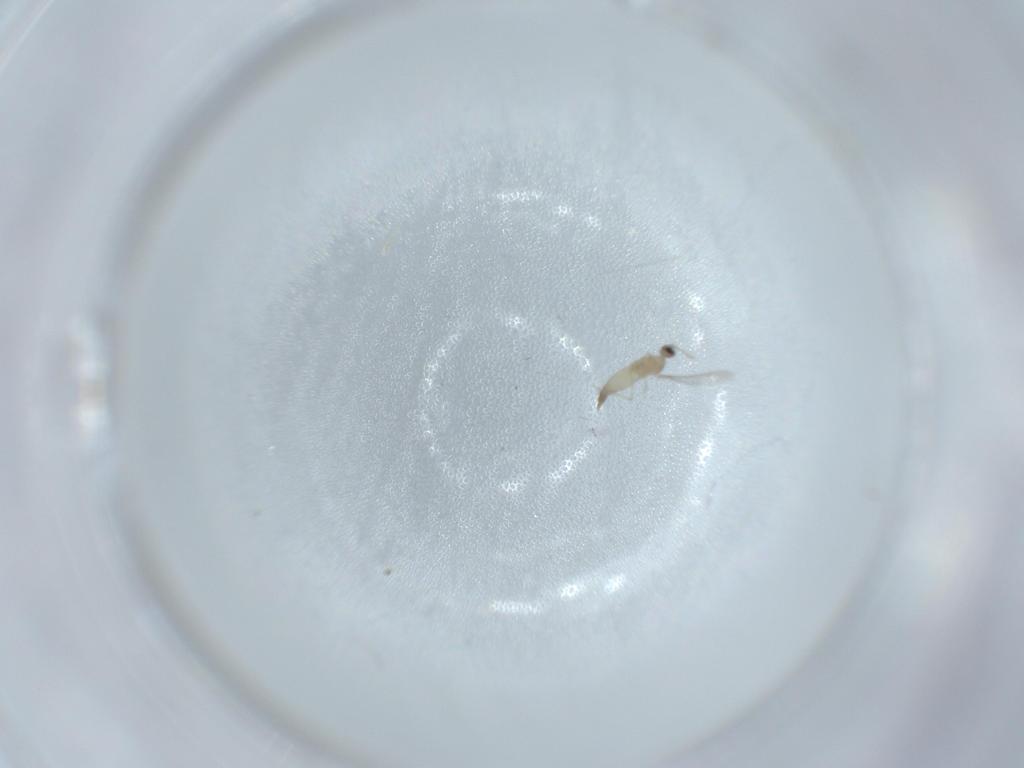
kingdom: Animalia
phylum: Arthropoda
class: Insecta
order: Diptera
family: Cecidomyiidae
